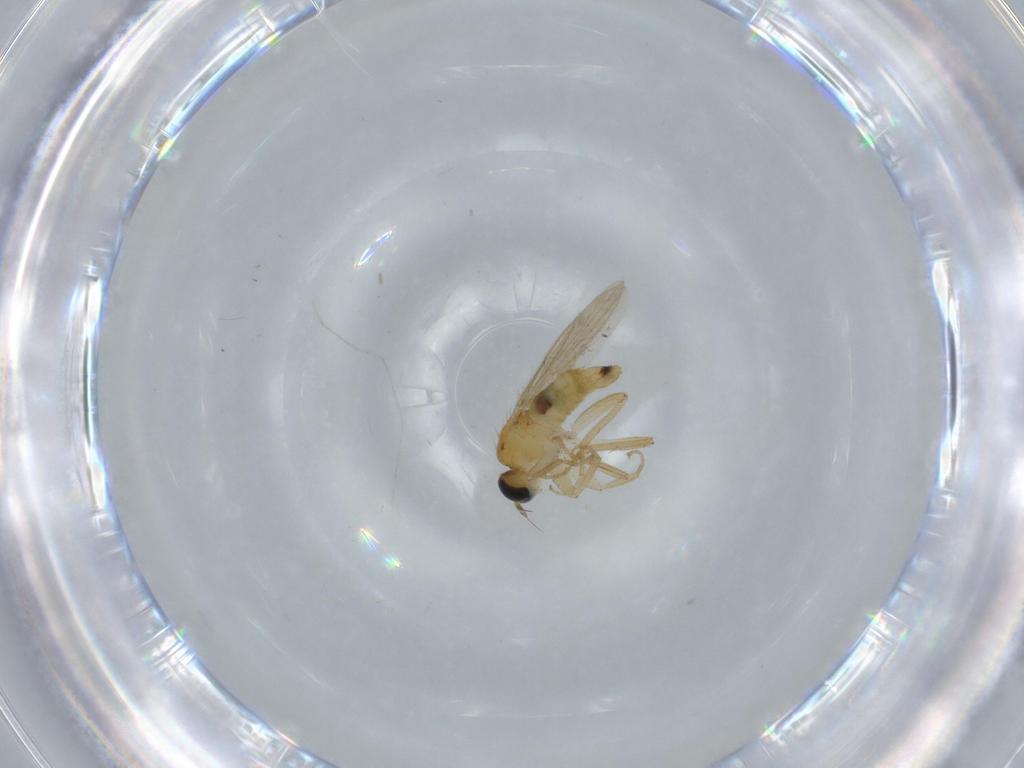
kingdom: Animalia
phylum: Arthropoda
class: Insecta
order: Diptera
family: Hybotidae
